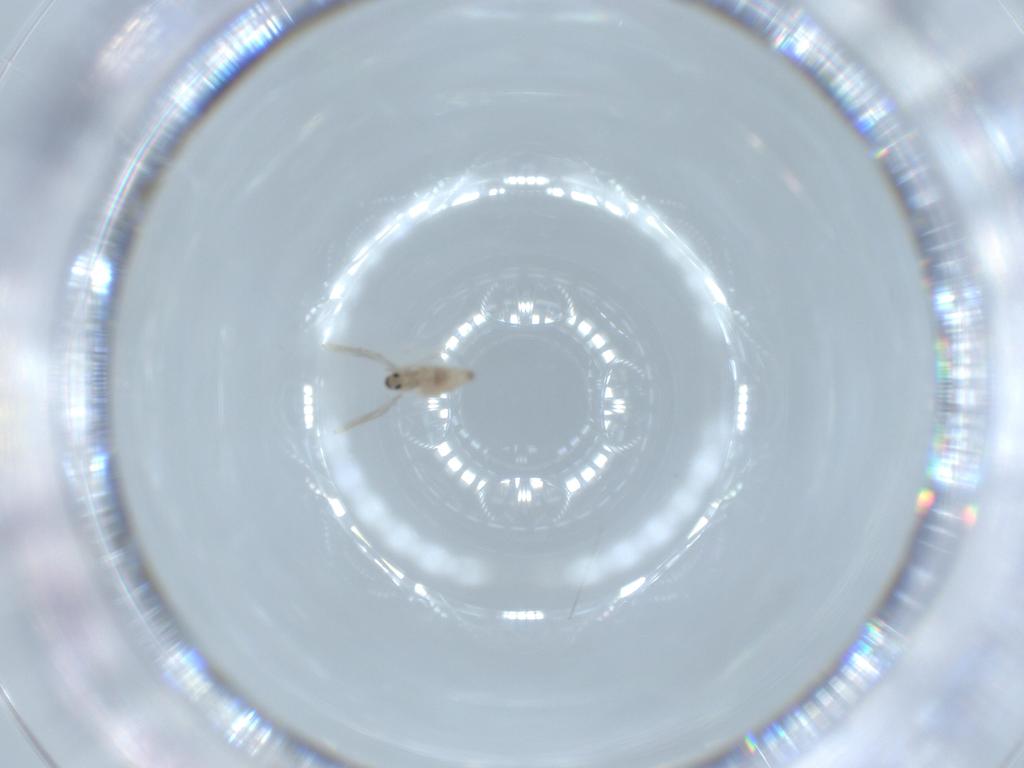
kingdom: Animalia
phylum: Arthropoda
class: Insecta
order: Diptera
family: Cecidomyiidae
